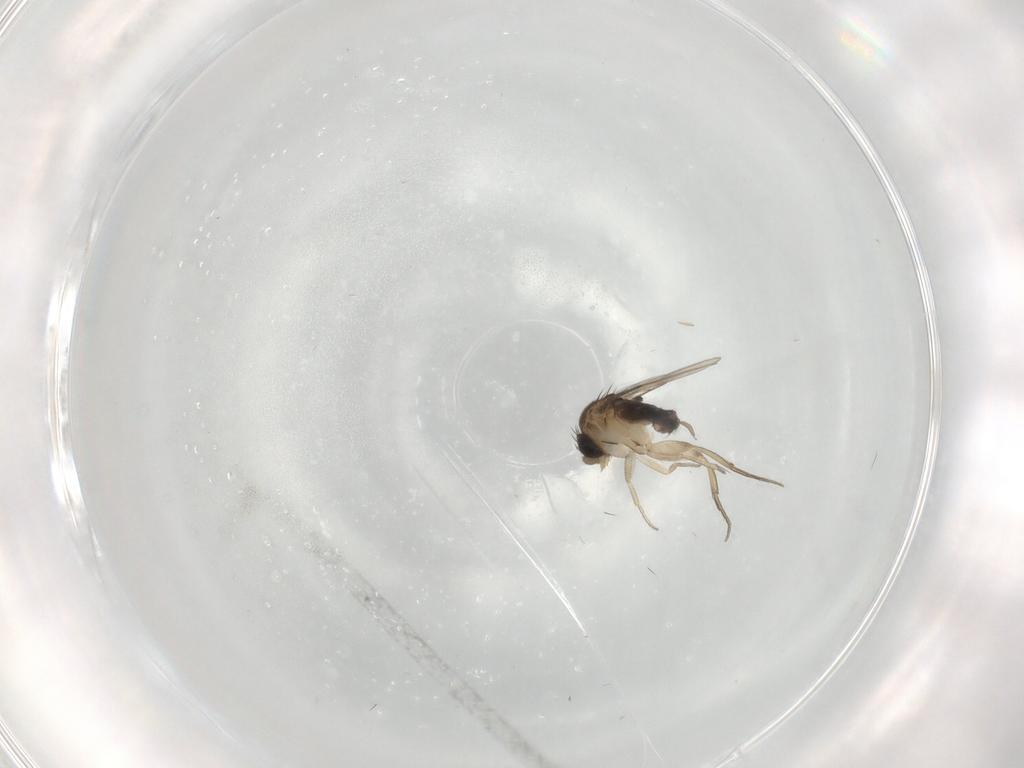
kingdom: Animalia
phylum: Arthropoda
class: Insecta
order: Diptera
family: Phoridae
